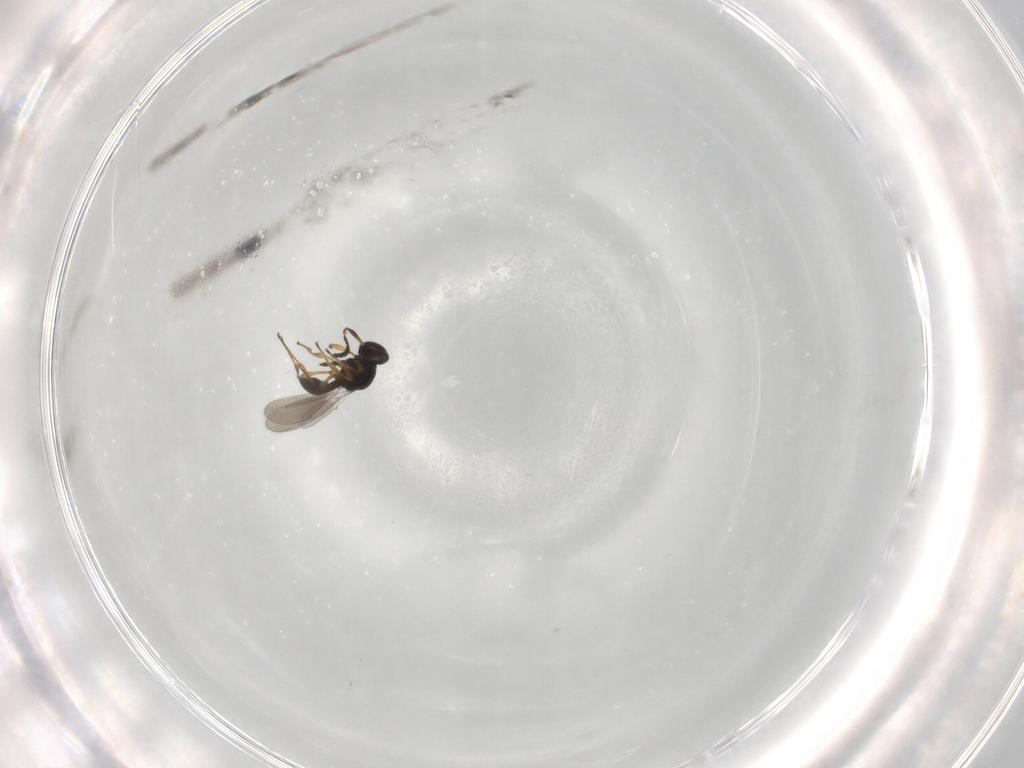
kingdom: Animalia
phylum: Arthropoda
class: Insecta
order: Hymenoptera
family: Platygastridae
